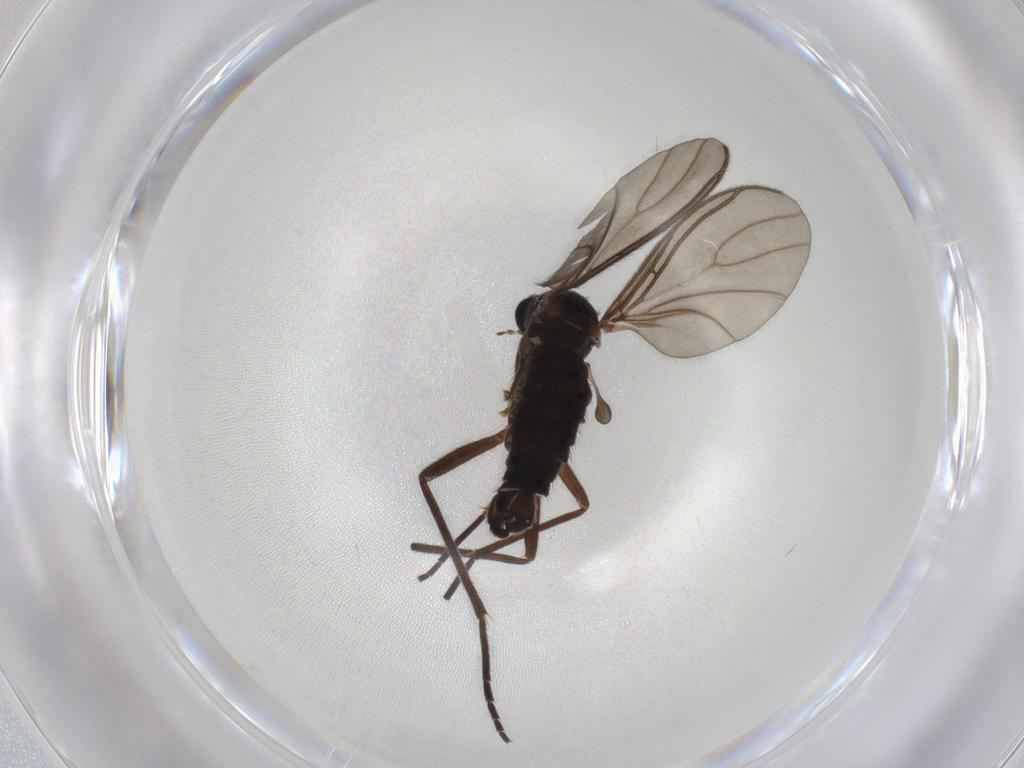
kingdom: Animalia
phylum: Arthropoda
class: Insecta
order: Diptera
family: Sciaridae
